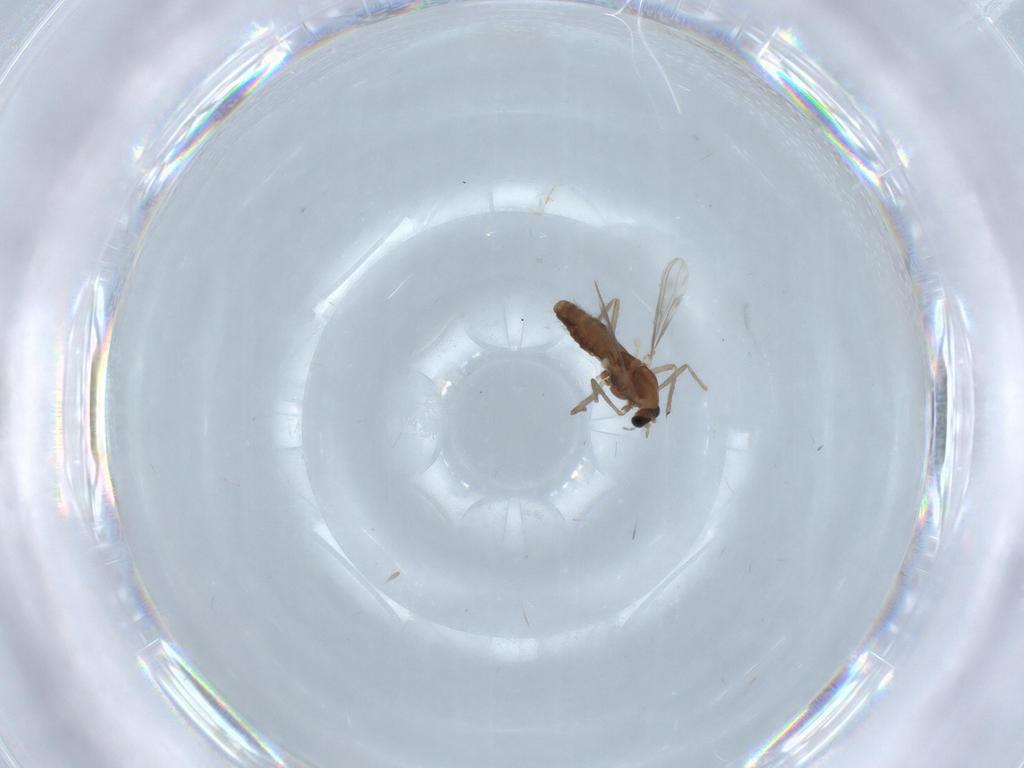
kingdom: Animalia
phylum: Arthropoda
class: Insecta
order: Diptera
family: Chironomidae
